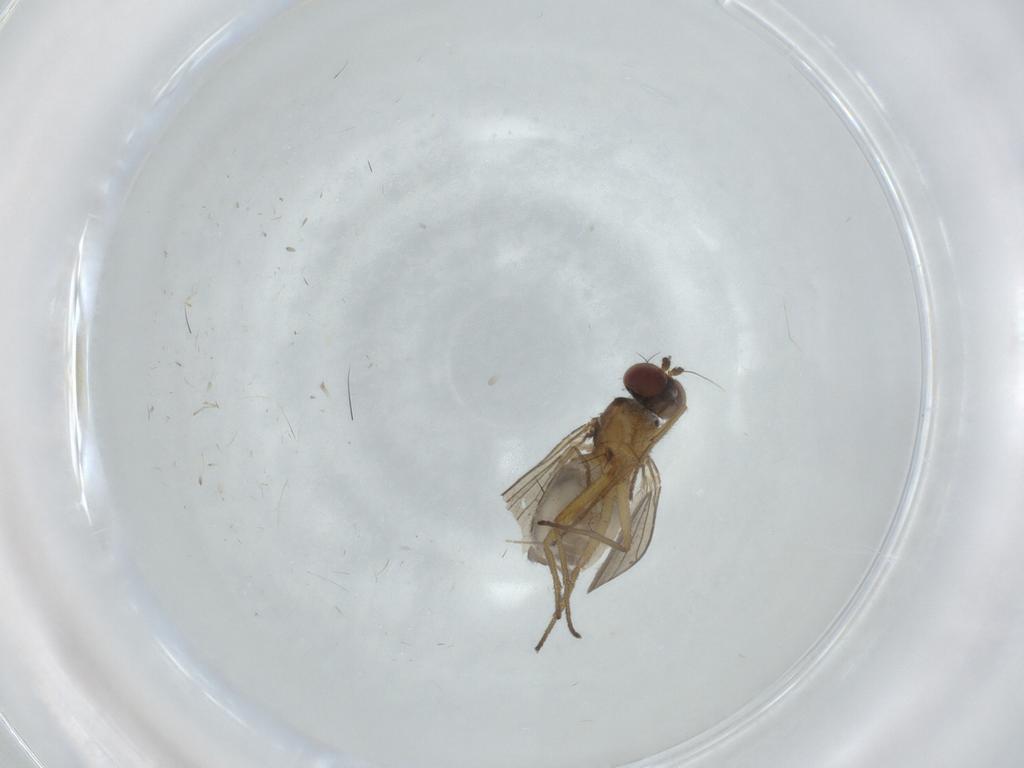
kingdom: Animalia
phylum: Arthropoda
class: Insecta
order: Diptera
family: Dolichopodidae
